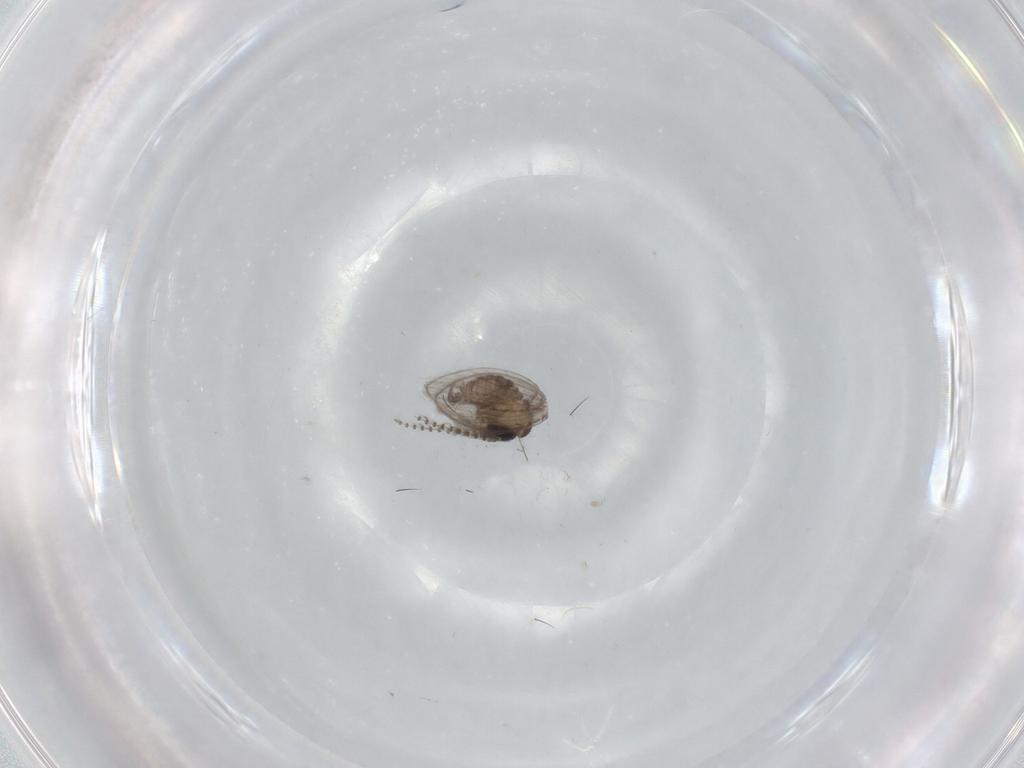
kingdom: Animalia
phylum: Arthropoda
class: Insecta
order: Diptera
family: Psychodidae
